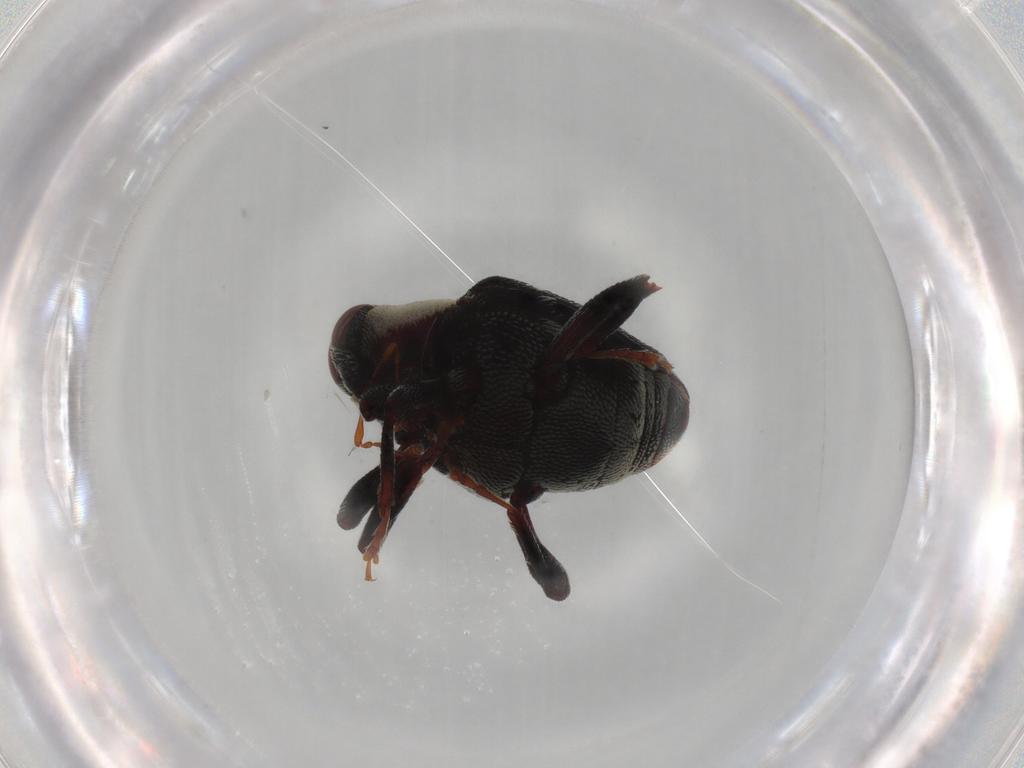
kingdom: Animalia
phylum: Arthropoda
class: Insecta
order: Coleoptera
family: Curculionidae
